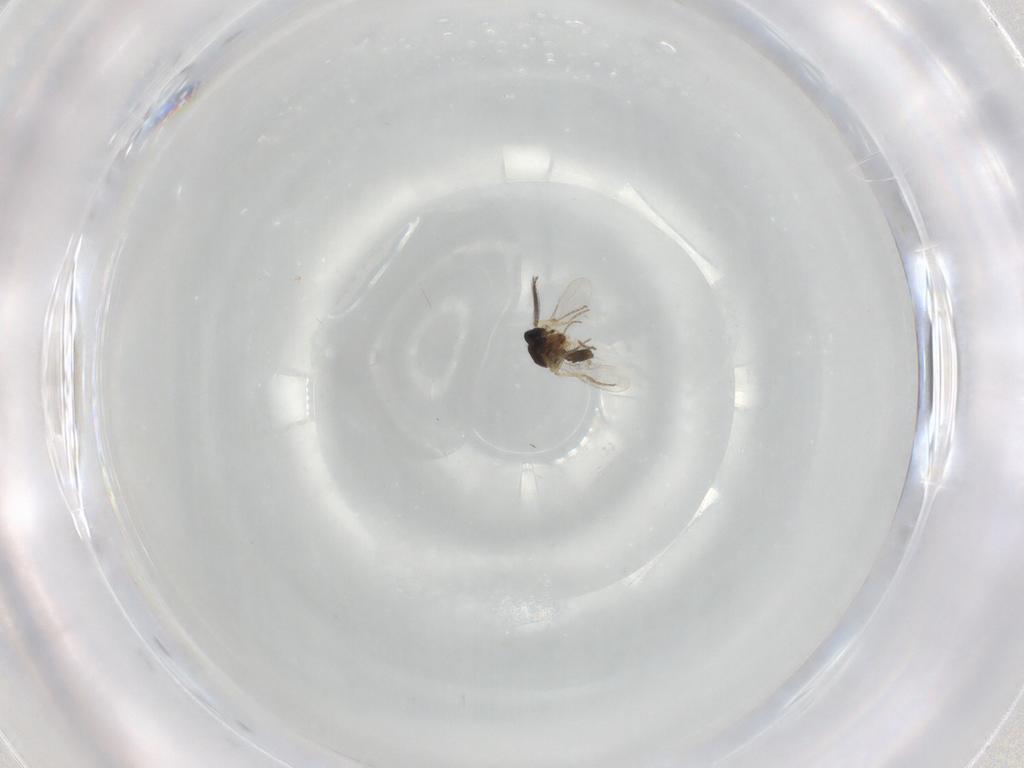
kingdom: Animalia
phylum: Arthropoda
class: Insecta
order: Diptera
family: Ceratopogonidae
